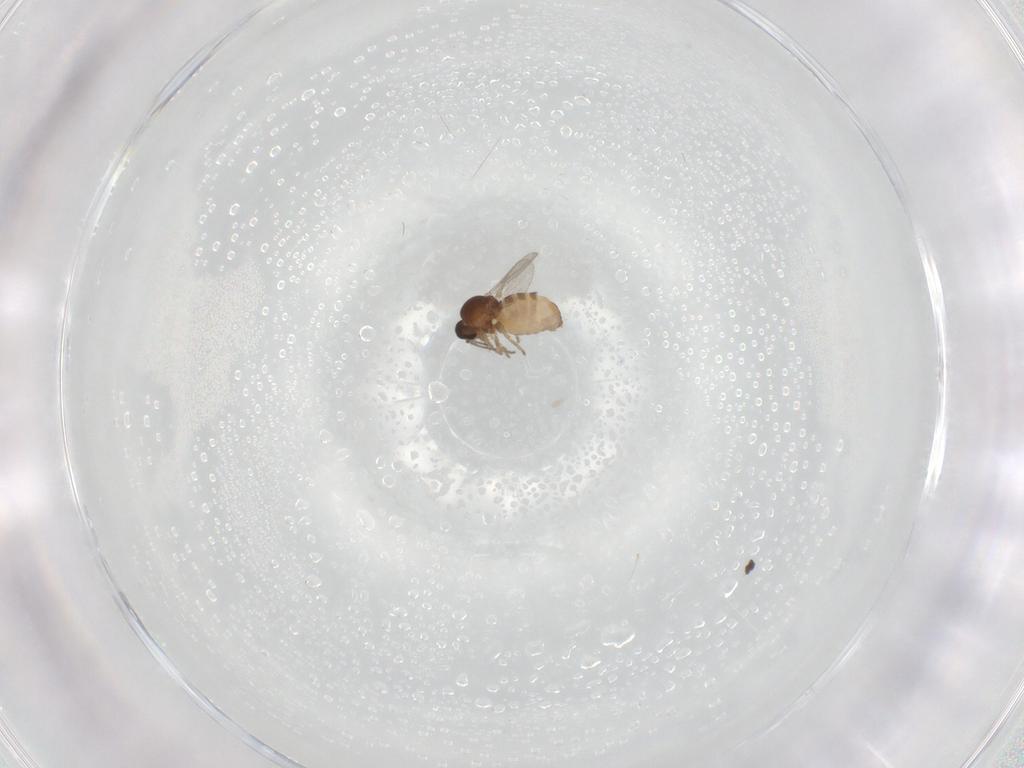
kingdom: Animalia
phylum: Arthropoda
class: Insecta
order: Diptera
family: Ceratopogonidae
